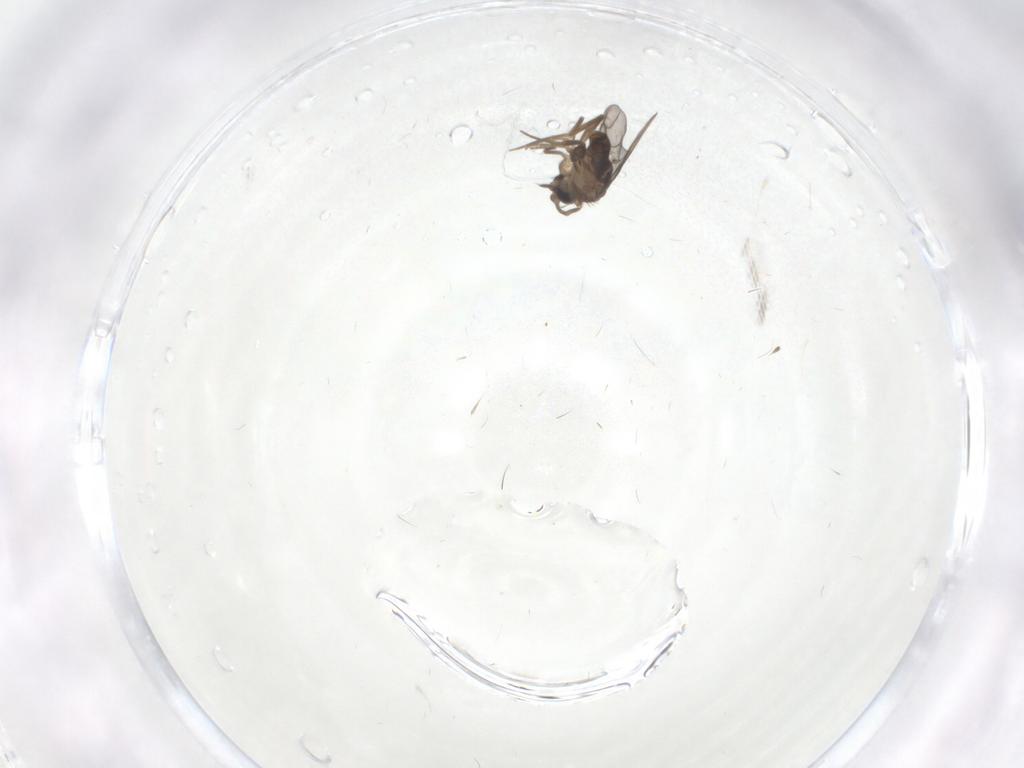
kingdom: Animalia
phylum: Arthropoda
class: Insecta
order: Diptera
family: Phoridae
